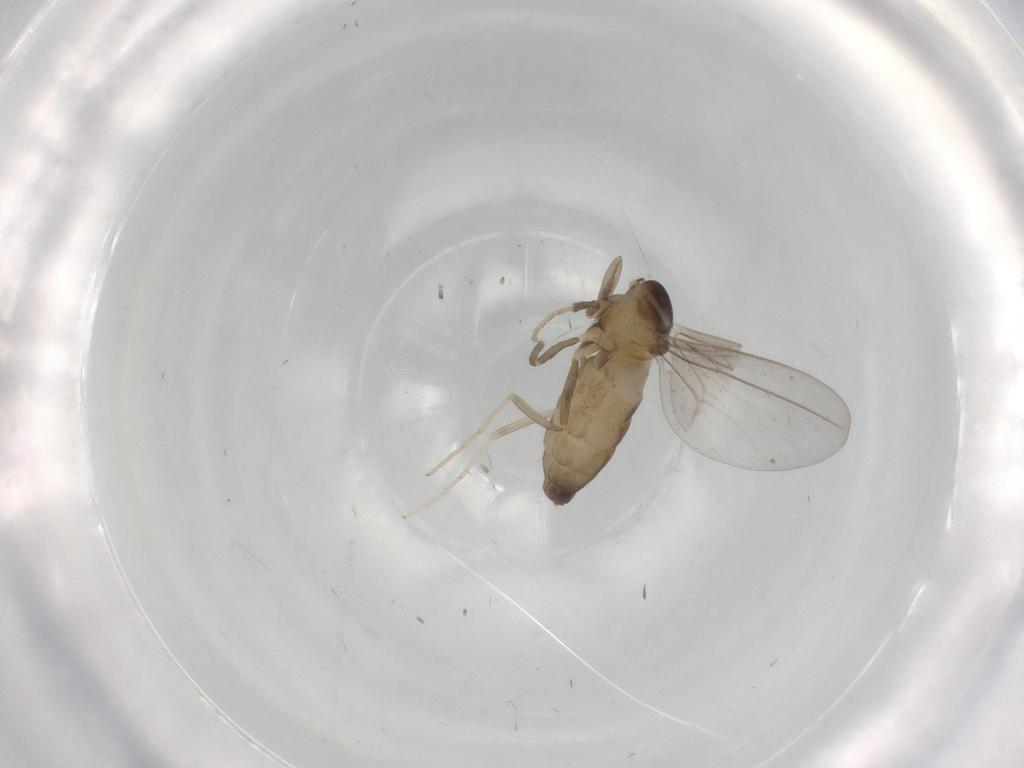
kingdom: Animalia
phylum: Arthropoda
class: Insecta
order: Diptera
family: Cecidomyiidae
